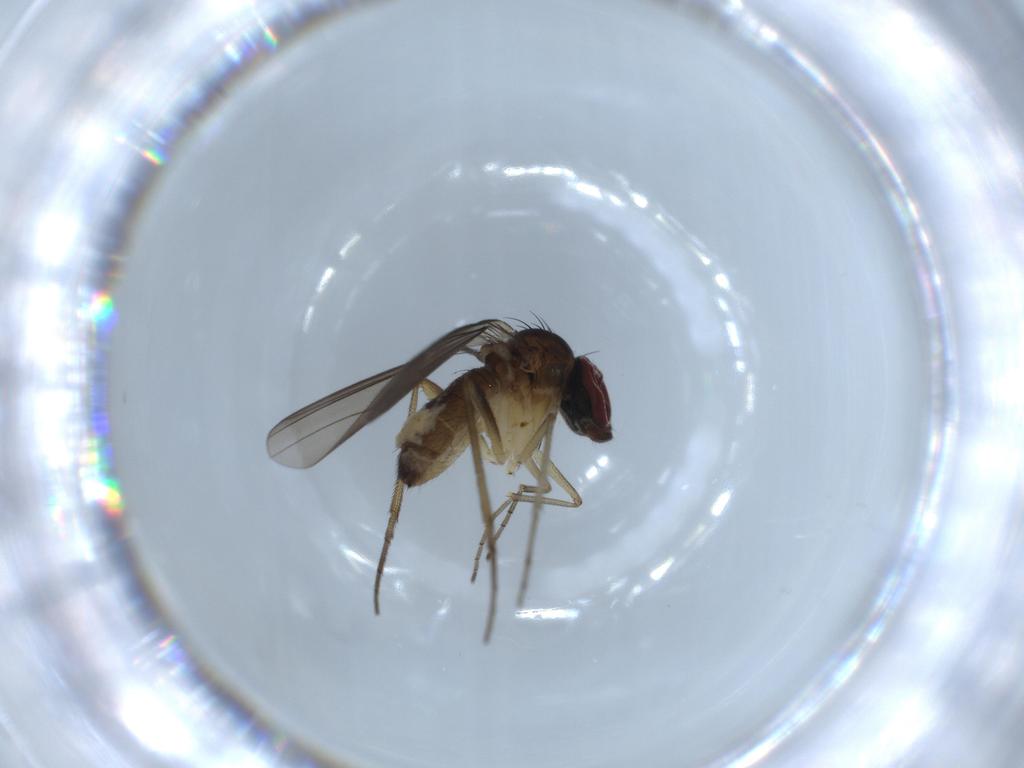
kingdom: Animalia
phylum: Arthropoda
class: Insecta
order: Diptera
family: Dolichopodidae
